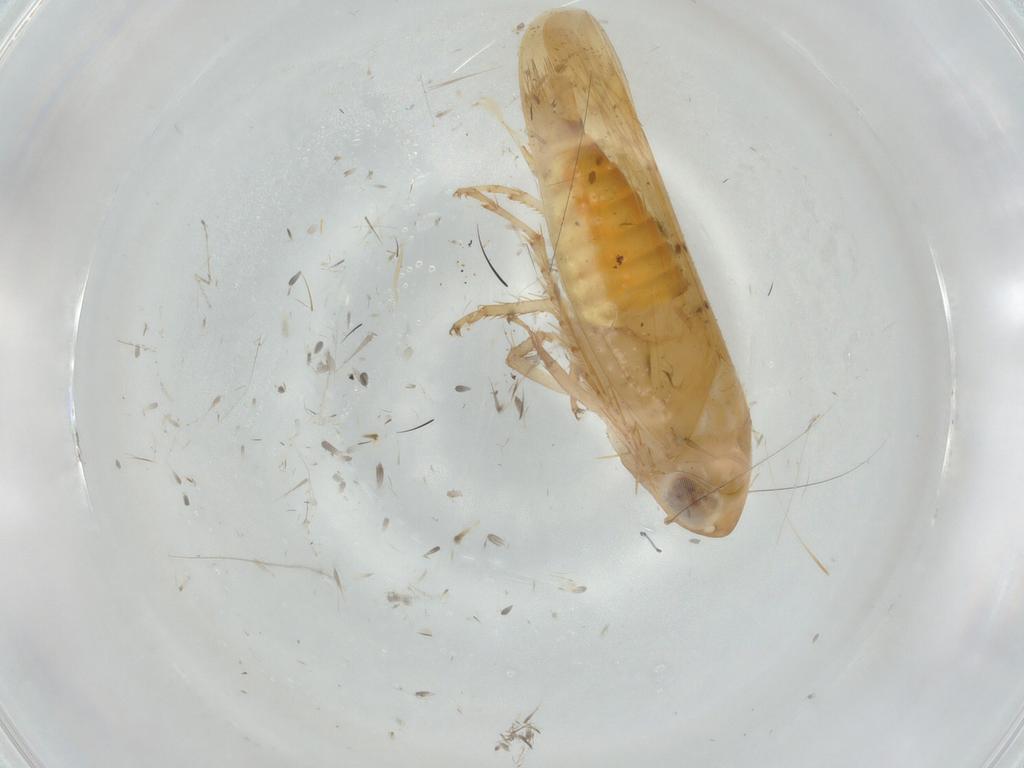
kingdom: Animalia
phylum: Arthropoda
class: Insecta
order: Hemiptera
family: Cicadellidae
